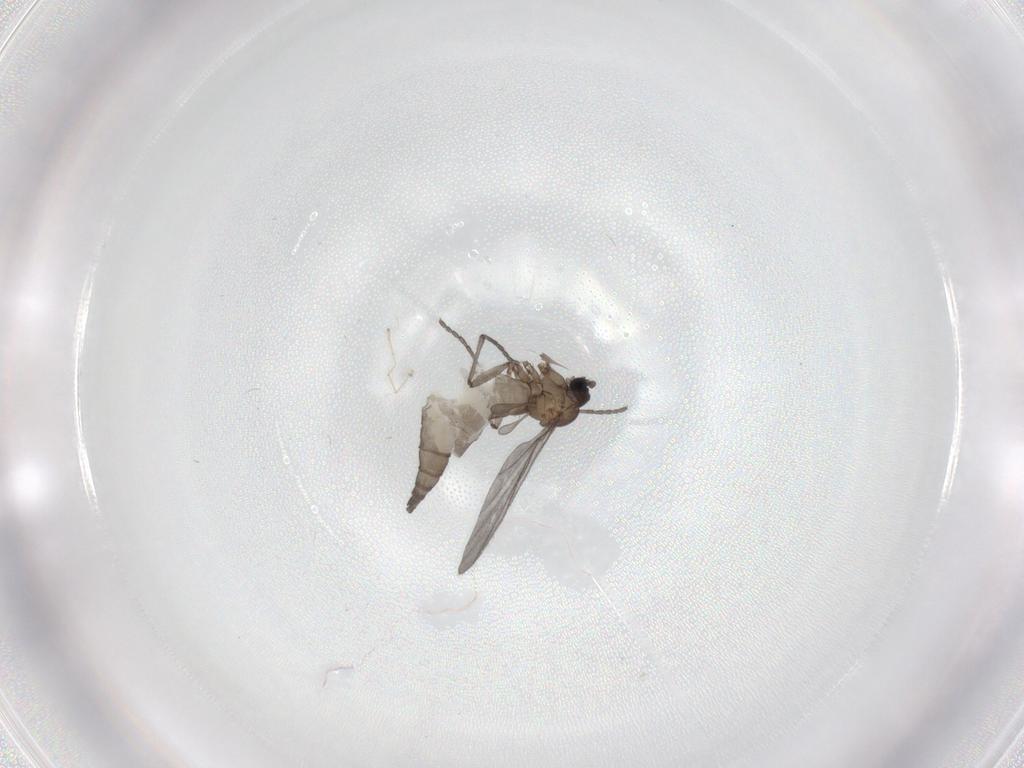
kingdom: Animalia
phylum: Arthropoda
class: Insecta
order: Diptera
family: Sciaridae
